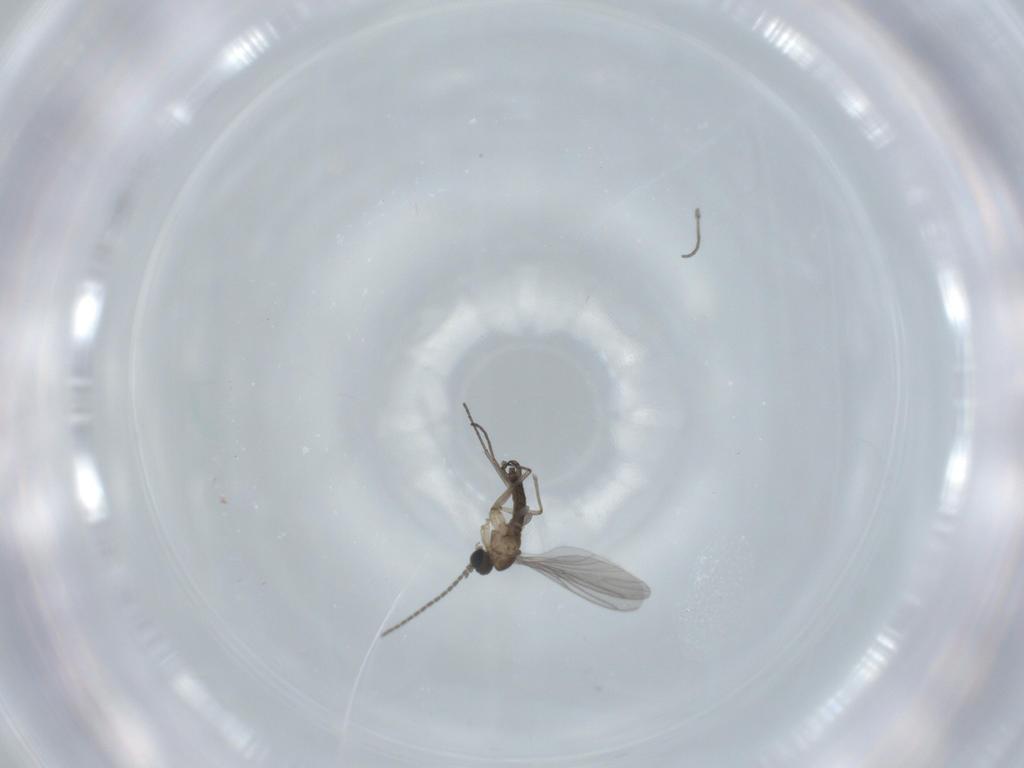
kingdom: Animalia
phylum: Arthropoda
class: Insecta
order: Diptera
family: Sciaridae
